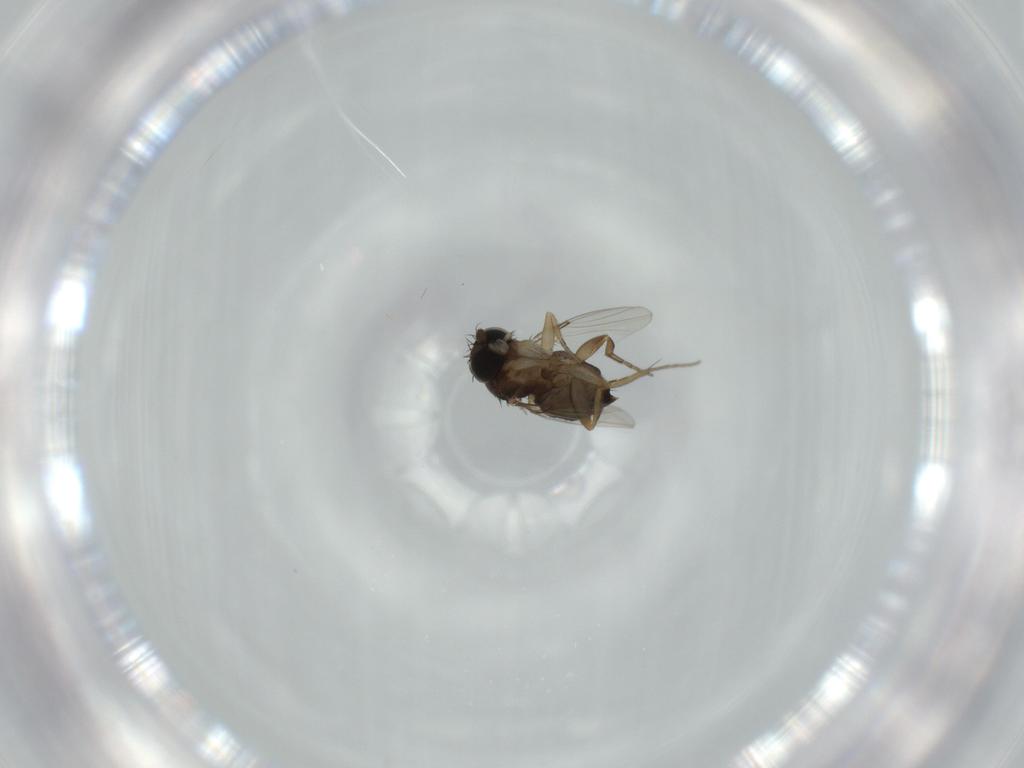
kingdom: Animalia
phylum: Arthropoda
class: Insecta
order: Diptera
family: Phoridae
